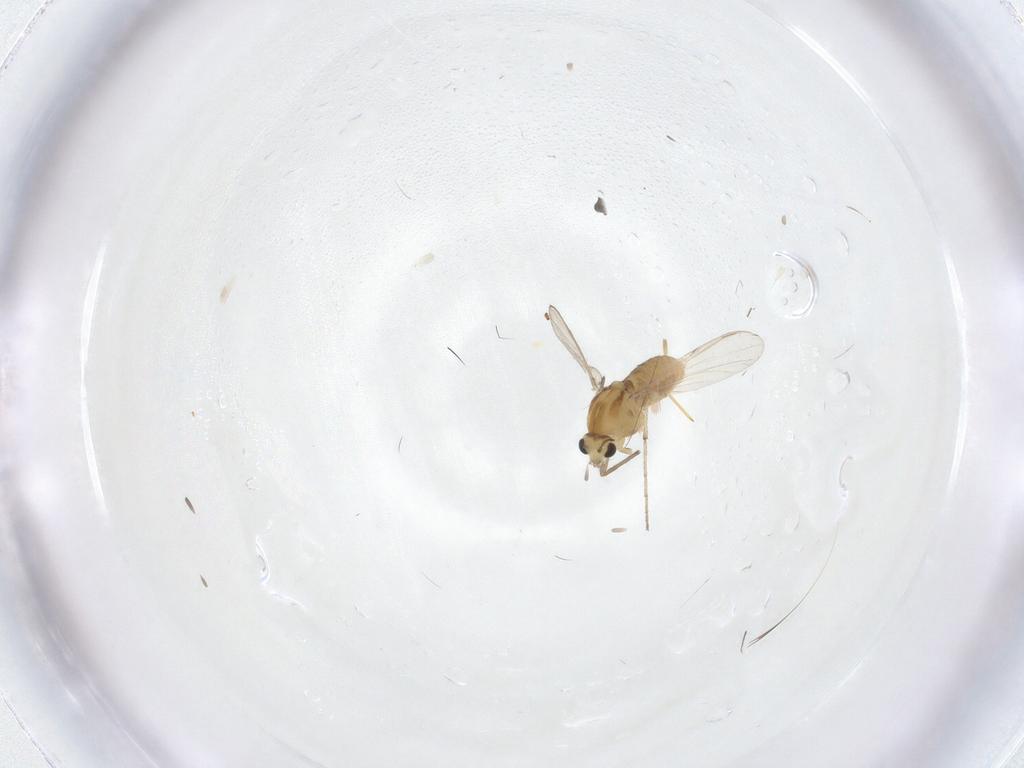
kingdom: Animalia
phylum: Arthropoda
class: Insecta
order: Diptera
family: Chironomidae
